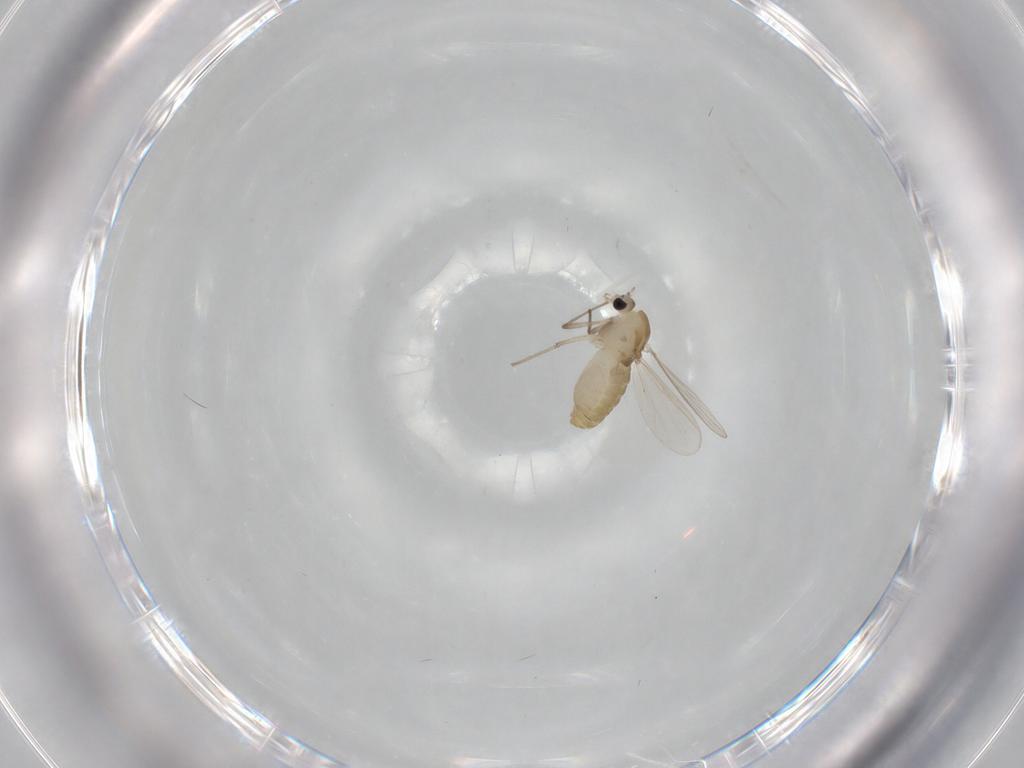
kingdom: Animalia
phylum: Arthropoda
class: Insecta
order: Diptera
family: Chironomidae
